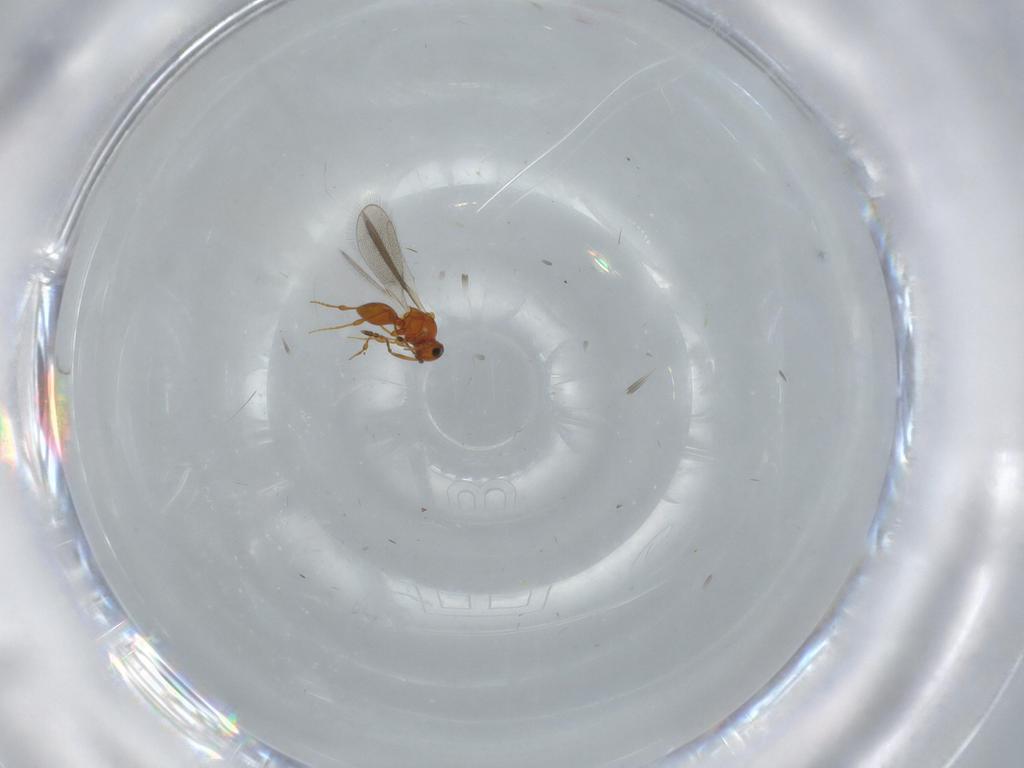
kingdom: Animalia
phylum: Arthropoda
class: Insecta
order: Hymenoptera
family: Platygastridae
